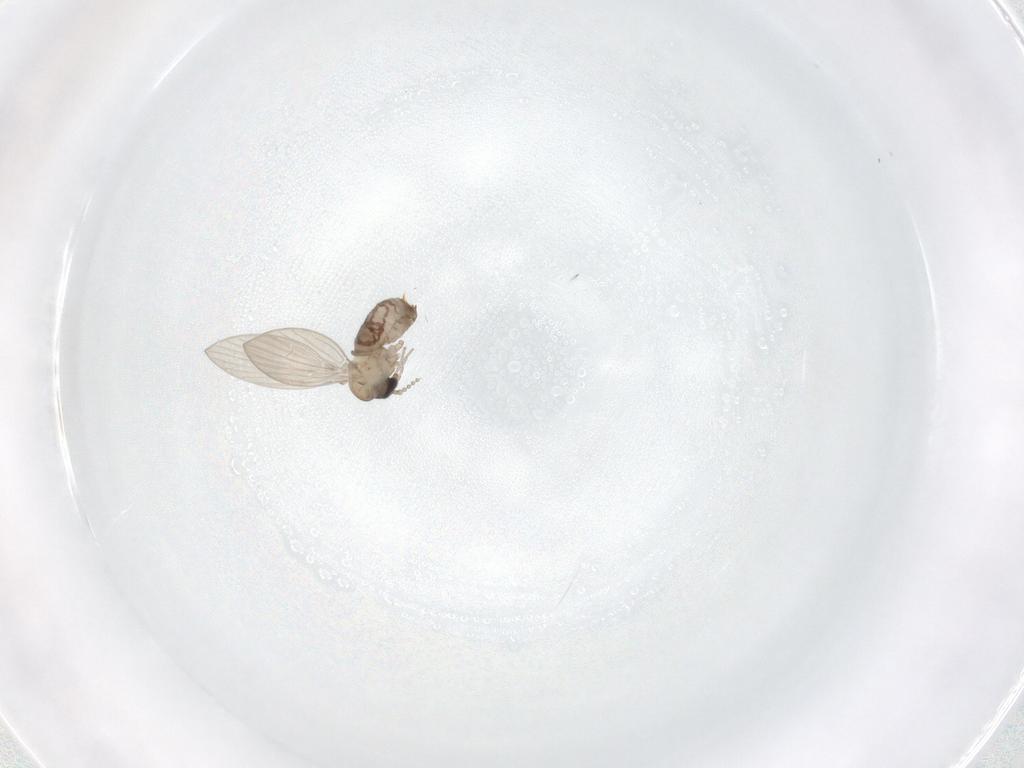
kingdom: Animalia
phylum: Arthropoda
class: Insecta
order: Diptera
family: Psychodidae
